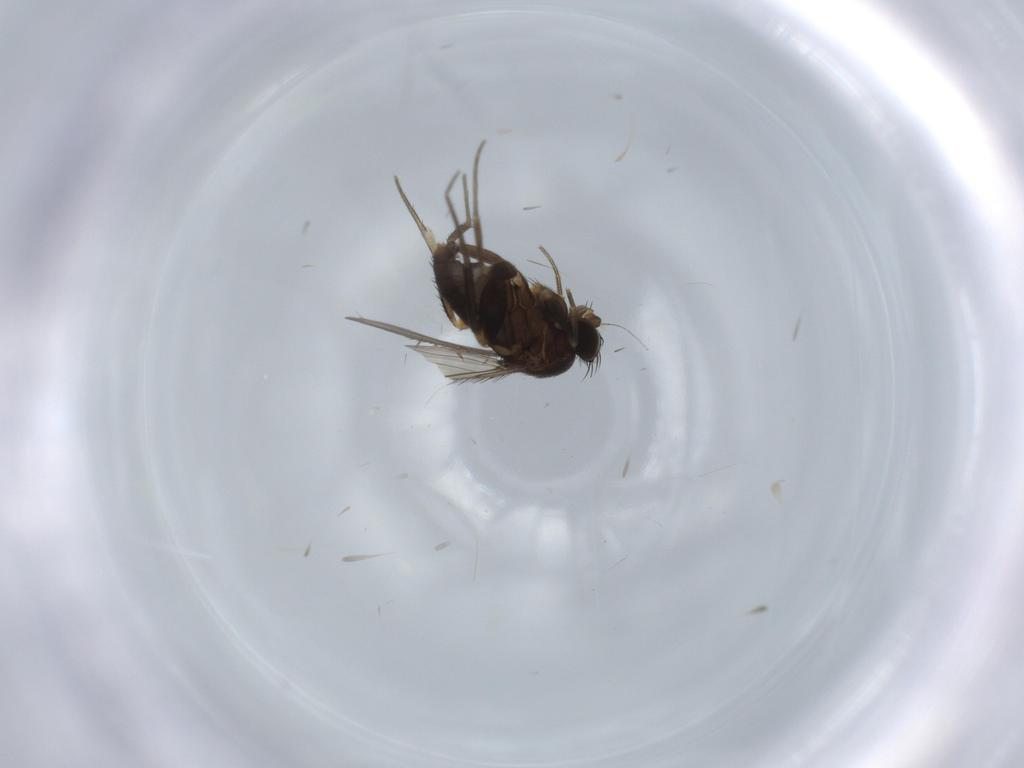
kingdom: Animalia
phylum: Arthropoda
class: Insecta
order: Diptera
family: Phoridae
